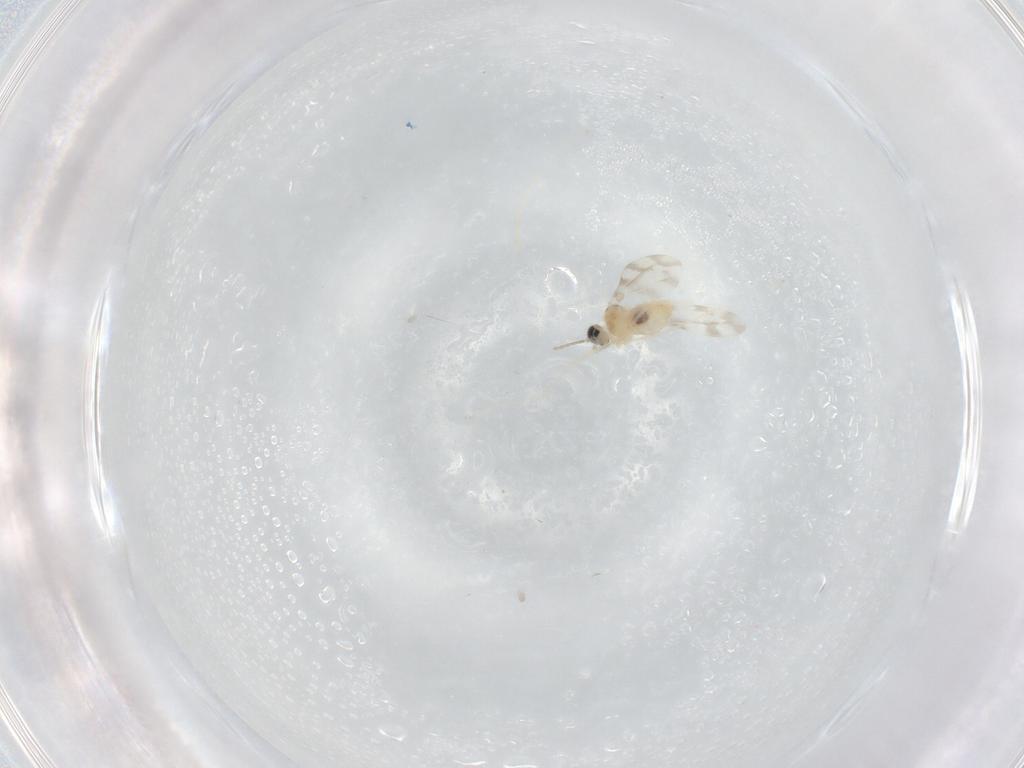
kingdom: Animalia
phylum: Arthropoda
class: Insecta
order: Diptera
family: Cecidomyiidae
